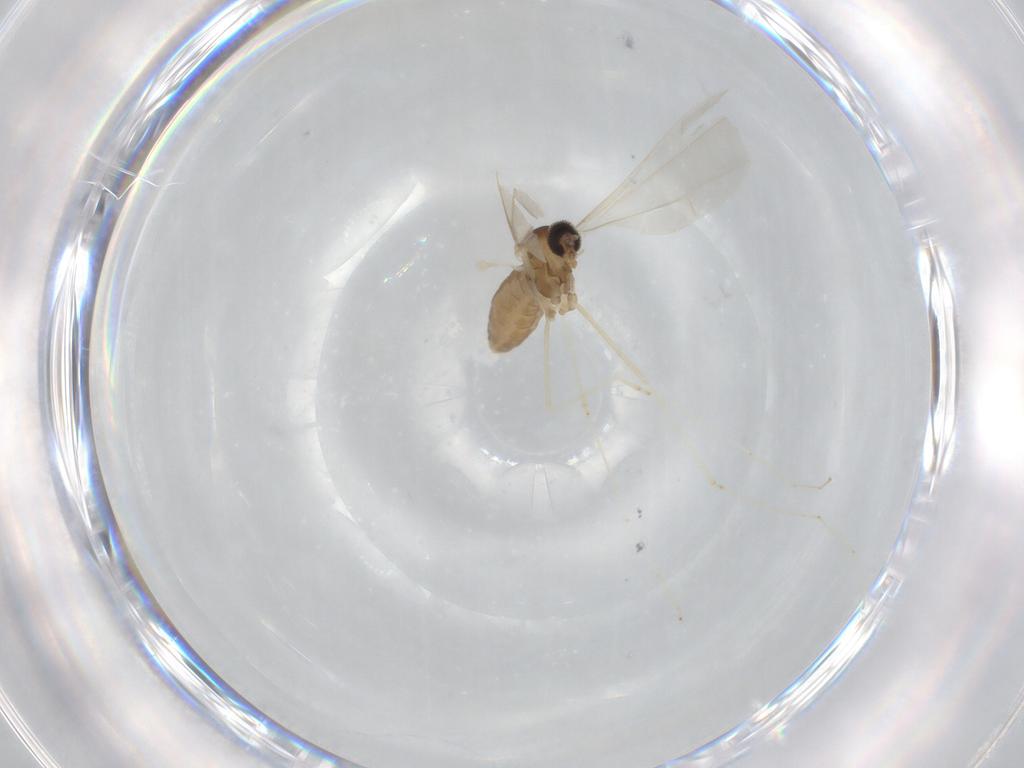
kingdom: Animalia
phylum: Arthropoda
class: Insecta
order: Diptera
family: Cecidomyiidae
